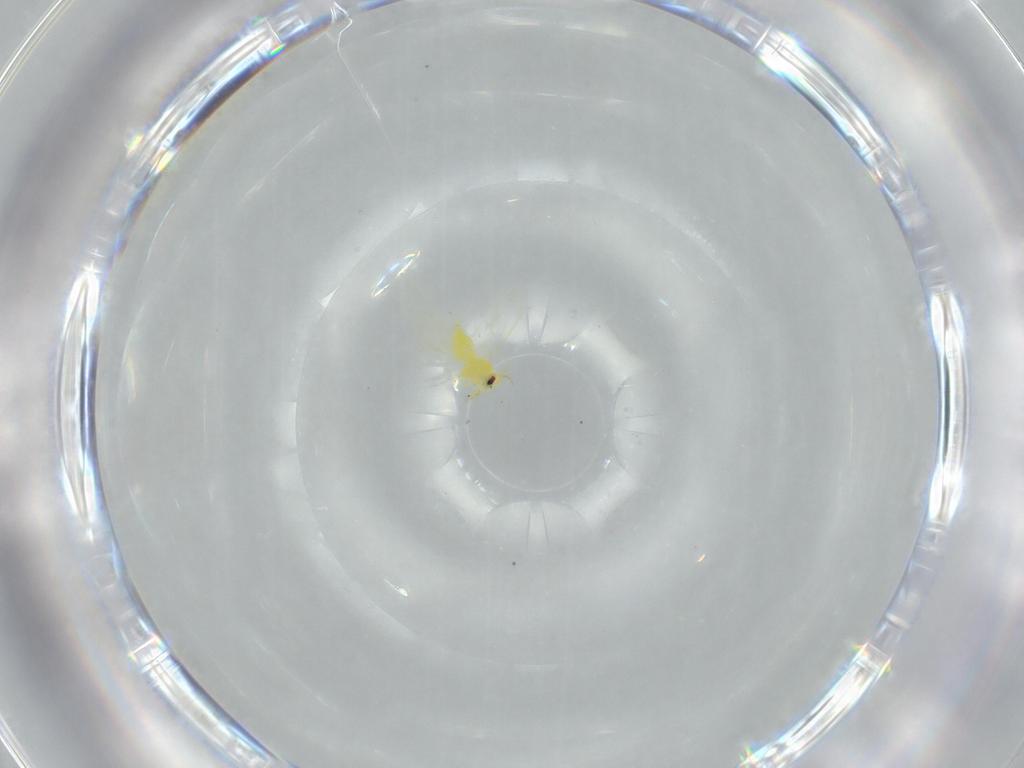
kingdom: Animalia
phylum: Arthropoda
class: Insecta
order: Hemiptera
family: Aleyrodidae
